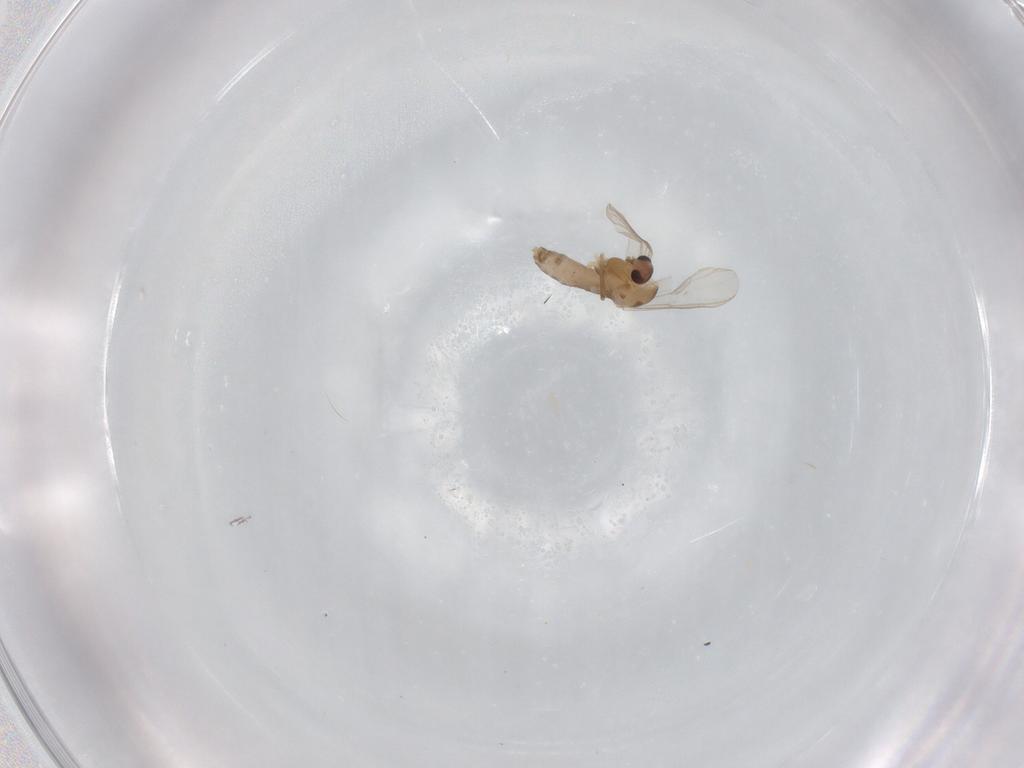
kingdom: Animalia
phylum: Arthropoda
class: Insecta
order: Diptera
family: Chironomidae
